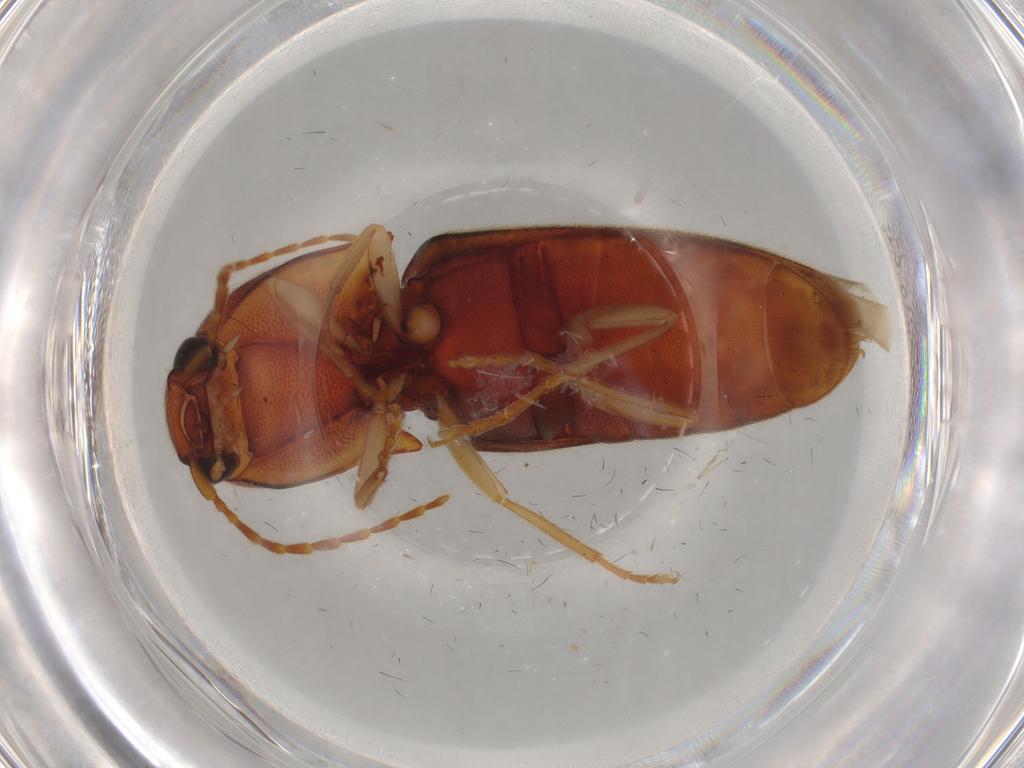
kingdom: Animalia
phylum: Arthropoda
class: Insecta
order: Coleoptera
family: Elateridae
